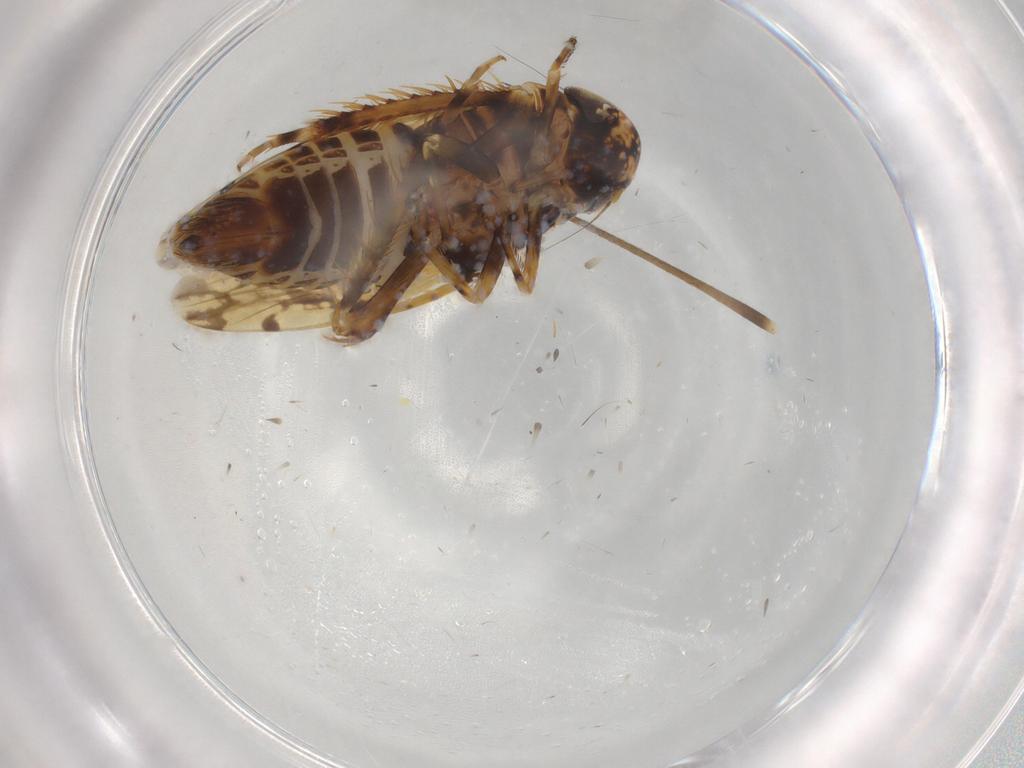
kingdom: Animalia
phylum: Arthropoda
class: Insecta
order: Hemiptera
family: Cicadellidae
